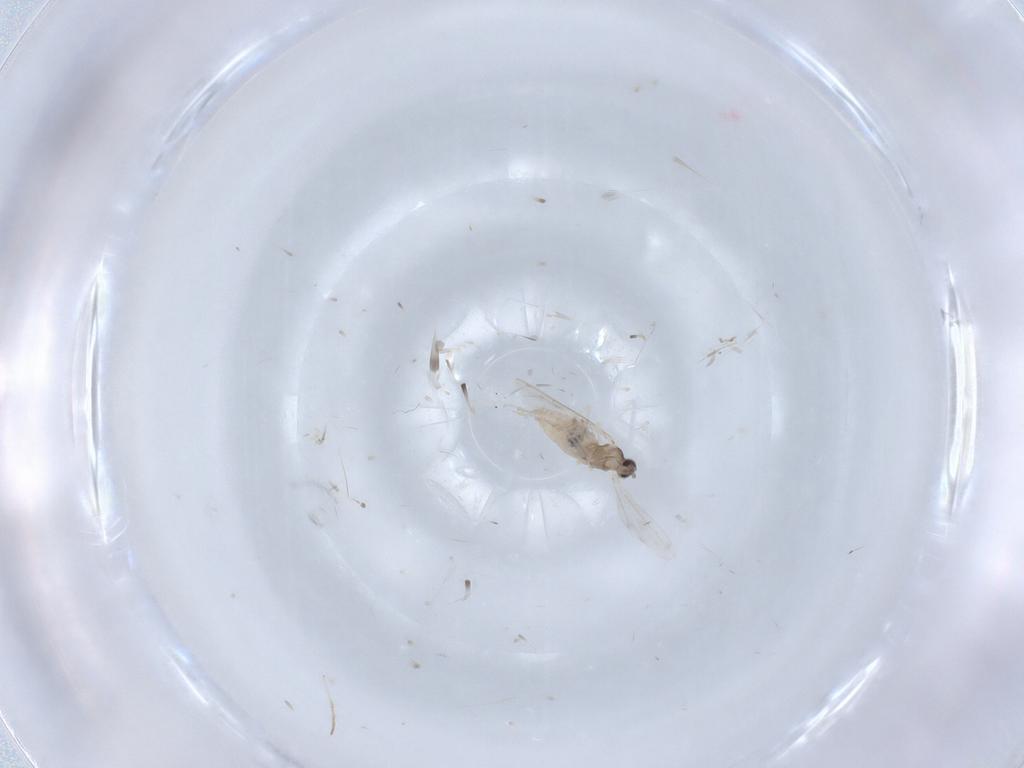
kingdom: Animalia
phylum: Arthropoda
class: Insecta
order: Diptera
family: Cecidomyiidae
